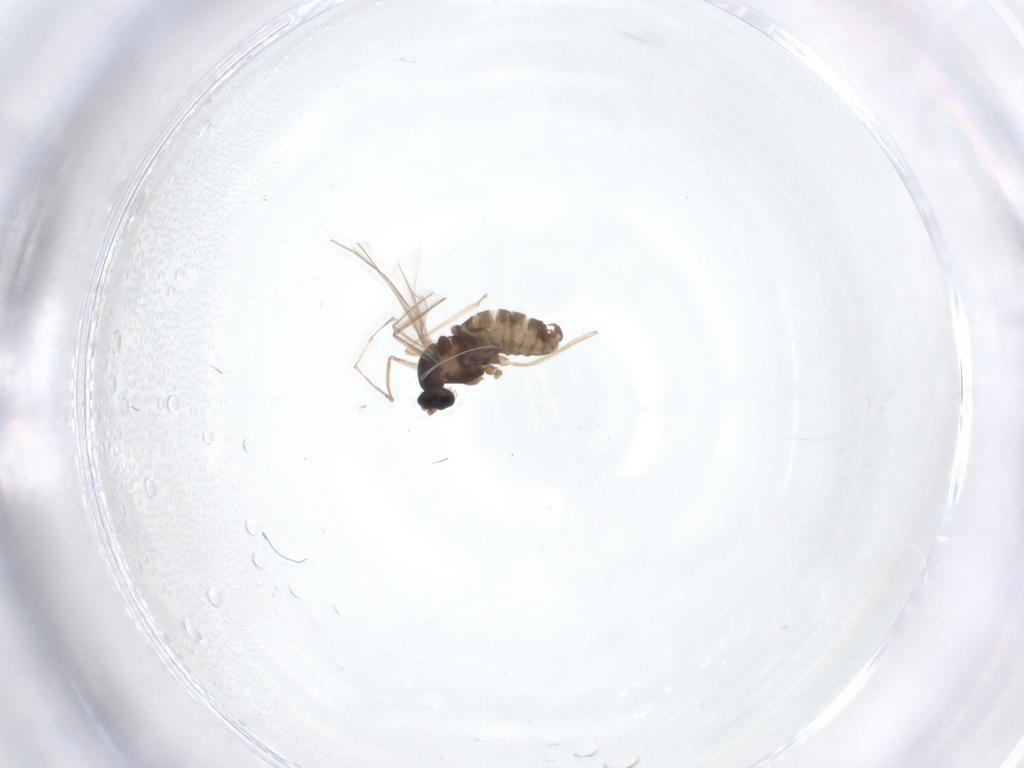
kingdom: Animalia
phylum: Arthropoda
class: Insecta
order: Diptera
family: Cecidomyiidae
